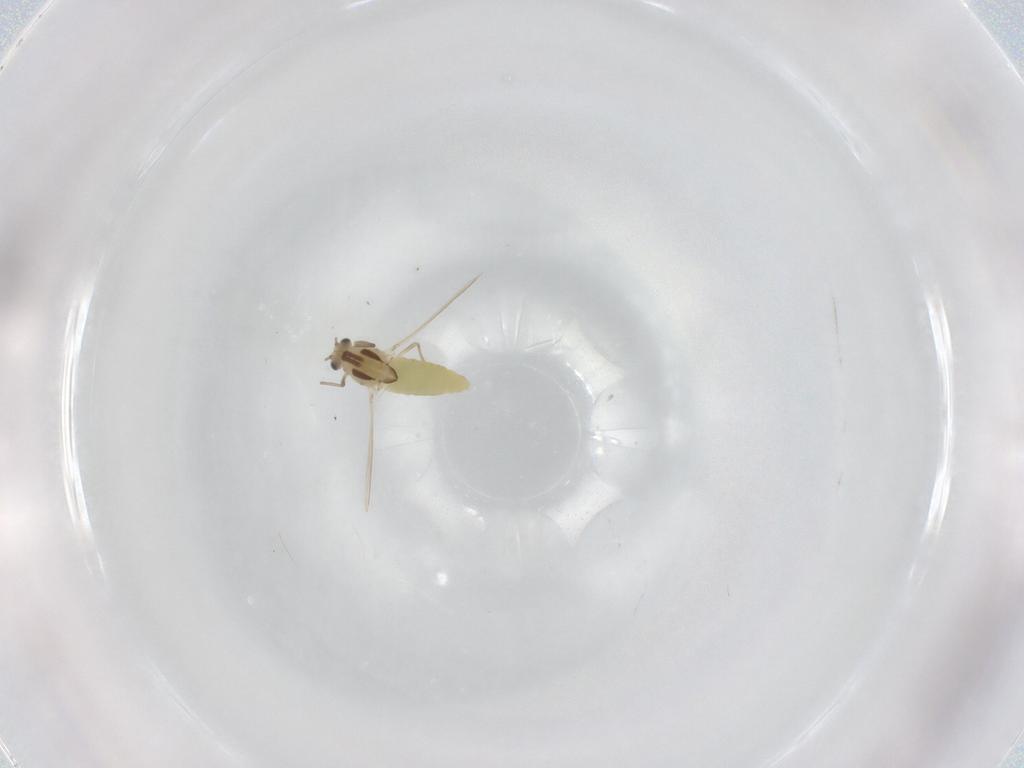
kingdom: Animalia
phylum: Arthropoda
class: Insecta
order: Diptera
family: Chironomidae
